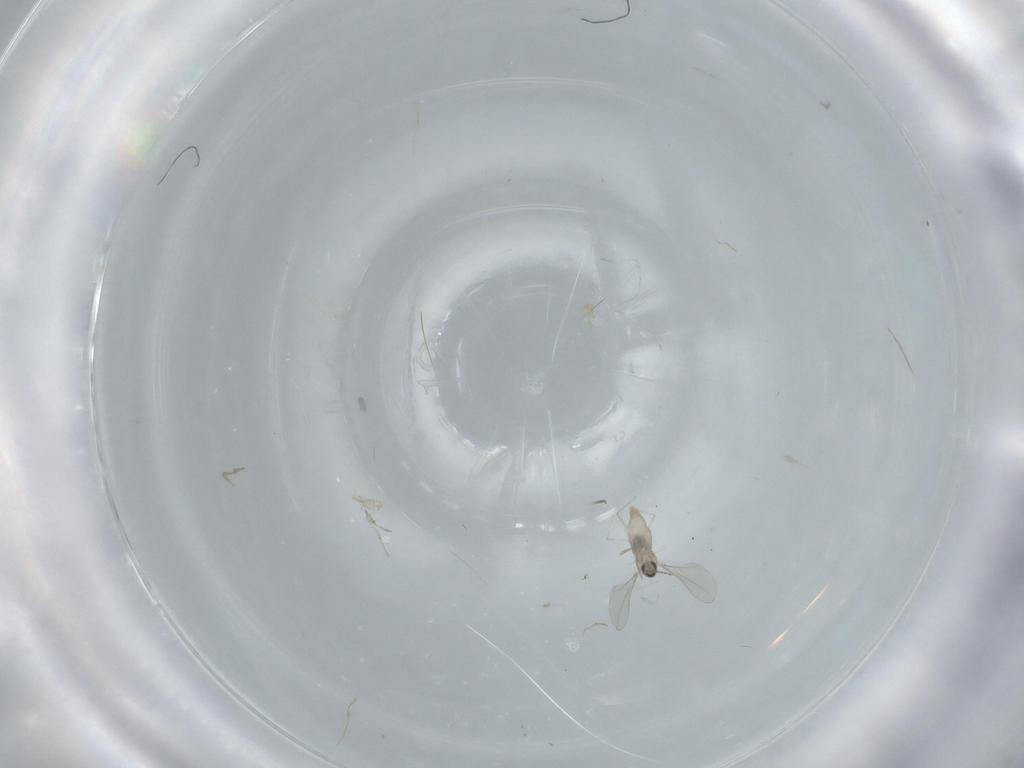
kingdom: Animalia
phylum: Arthropoda
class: Insecta
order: Diptera
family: Cecidomyiidae
